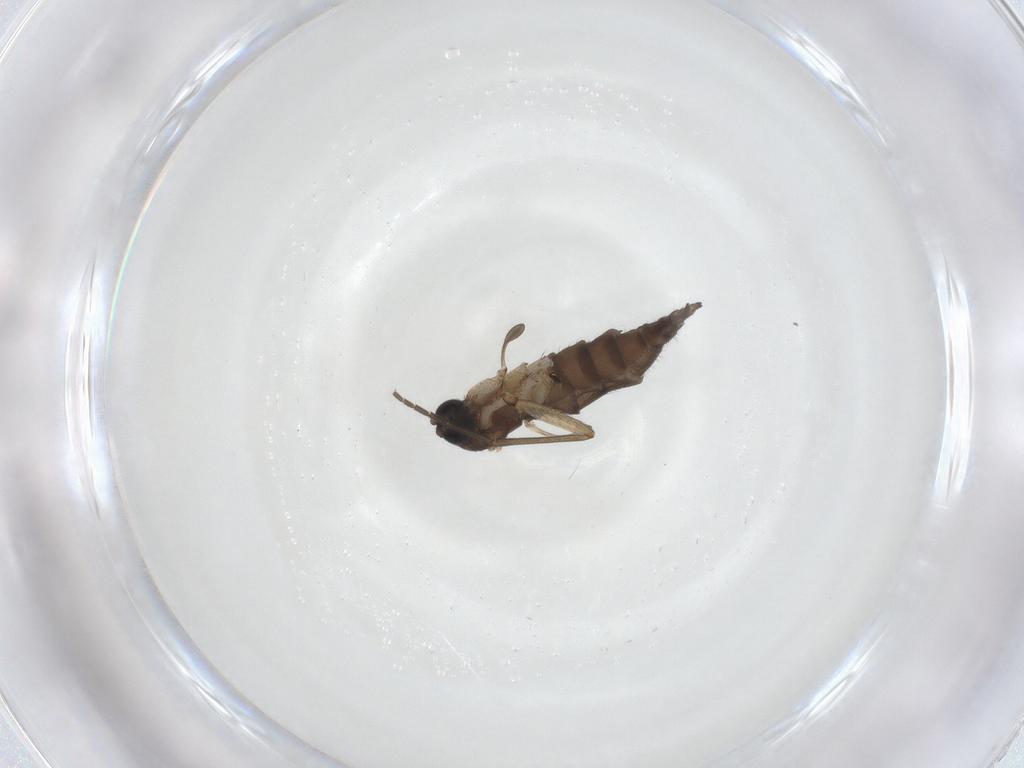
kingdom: Animalia
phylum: Arthropoda
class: Insecta
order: Diptera
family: Sciaridae
